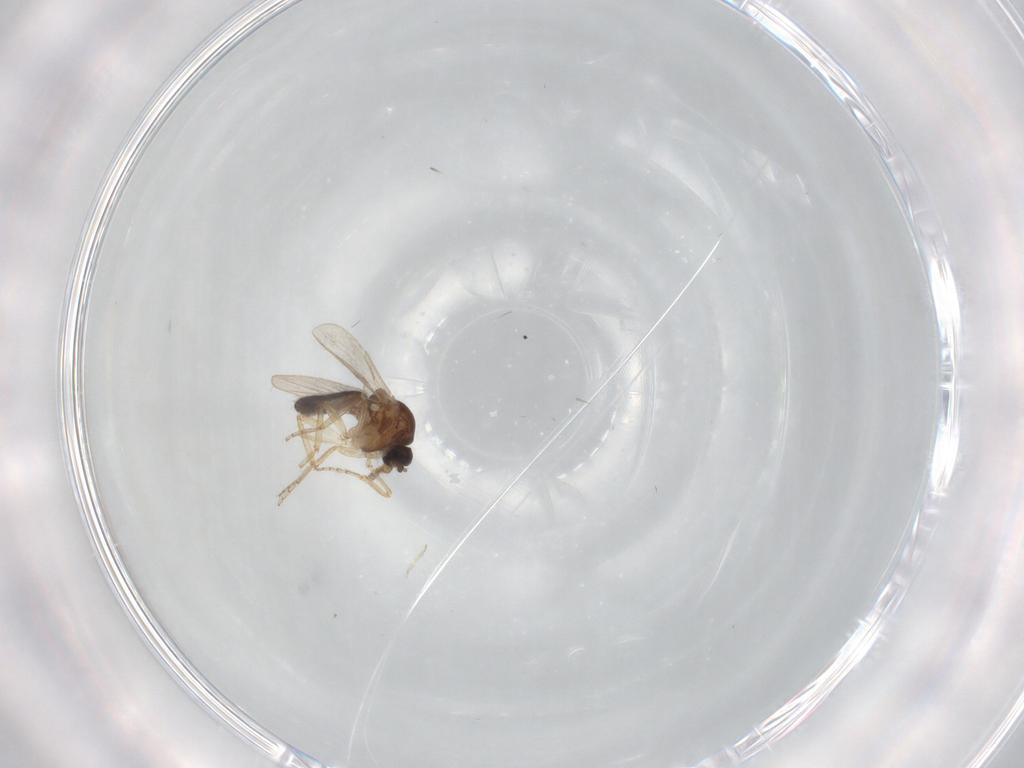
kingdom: Animalia
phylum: Arthropoda
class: Insecta
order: Diptera
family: Ceratopogonidae
